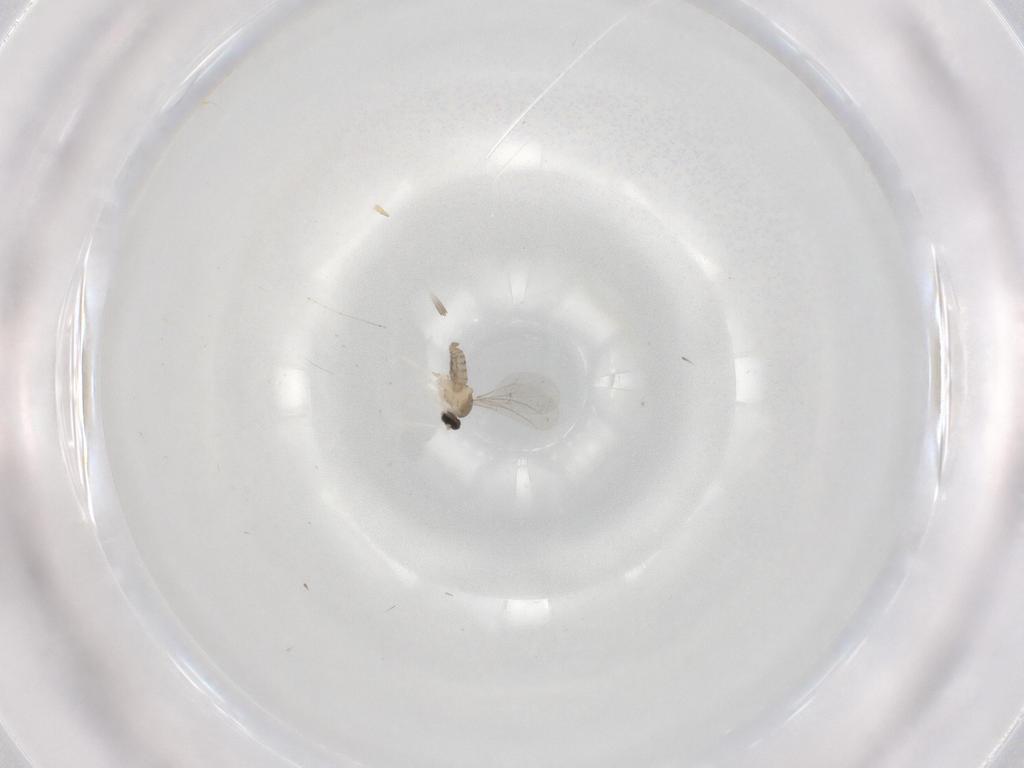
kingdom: Animalia
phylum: Arthropoda
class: Insecta
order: Diptera
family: Cecidomyiidae
